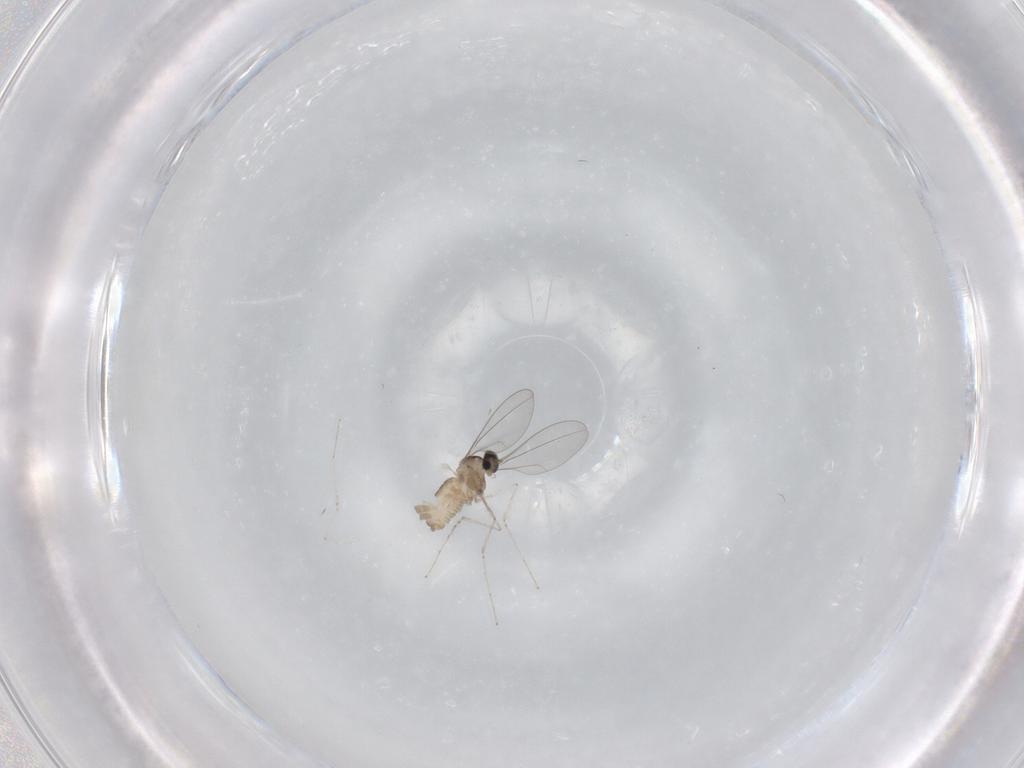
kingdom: Animalia
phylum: Arthropoda
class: Insecta
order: Diptera
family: Cecidomyiidae
